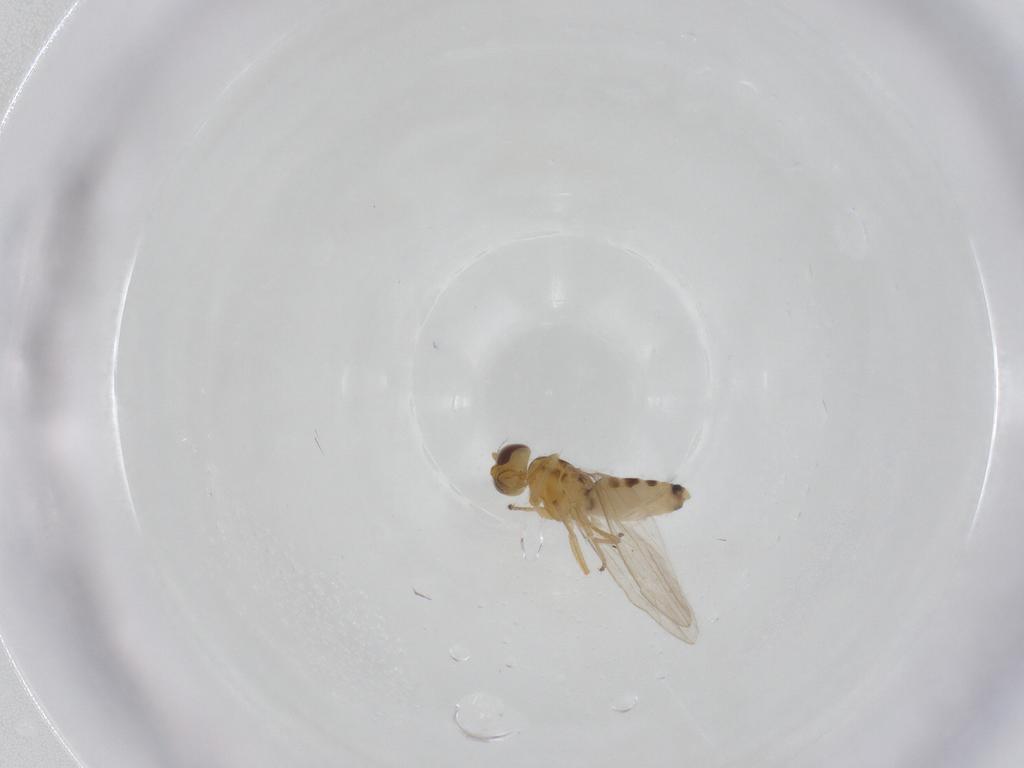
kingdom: Animalia
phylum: Arthropoda
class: Insecta
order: Diptera
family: Periscelididae
